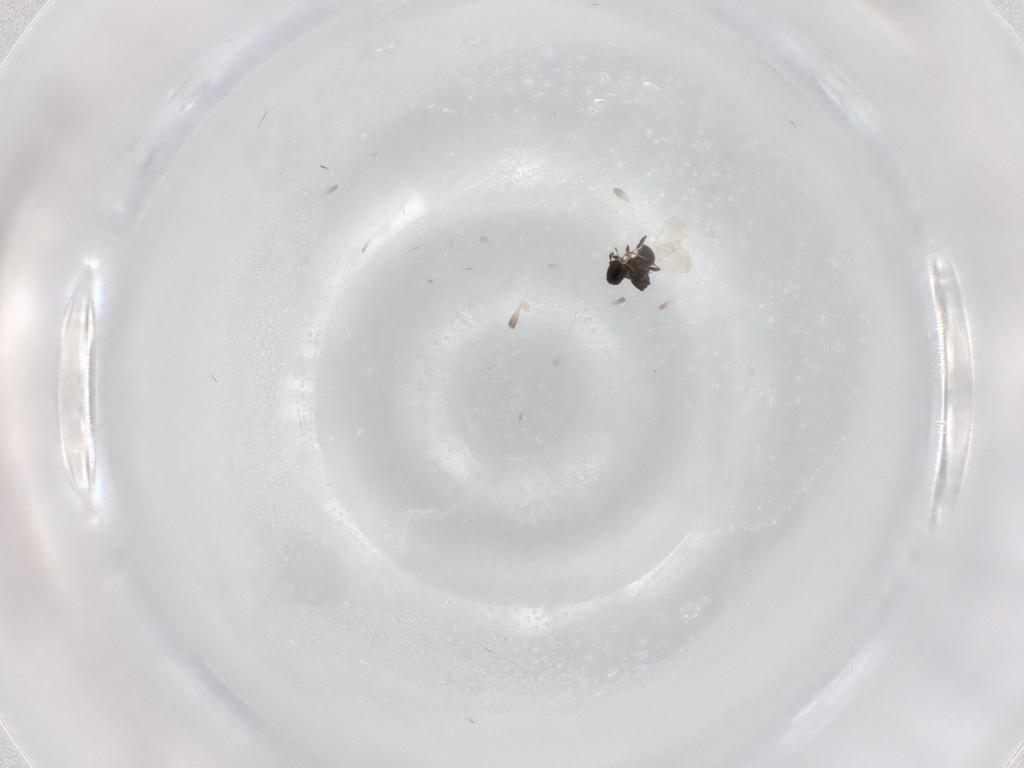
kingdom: Animalia
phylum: Arthropoda
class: Insecta
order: Hymenoptera
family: Platygastridae
